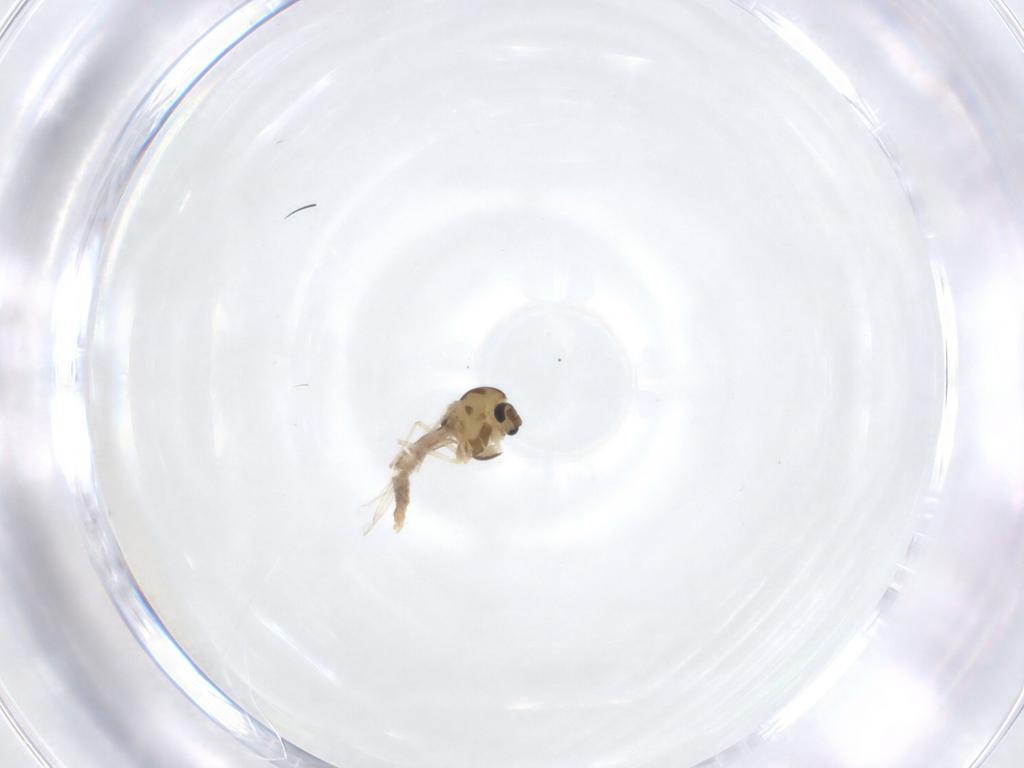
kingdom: Animalia
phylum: Arthropoda
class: Insecta
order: Diptera
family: Chironomidae
